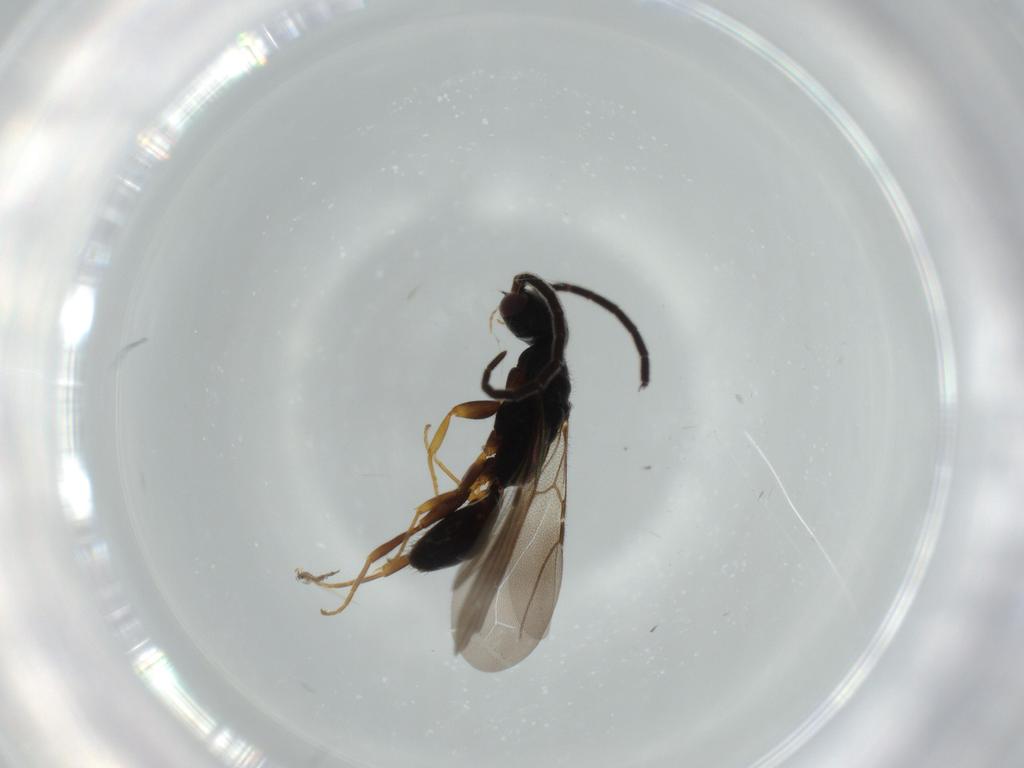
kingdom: Animalia
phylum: Arthropoda
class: Insecta
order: Hymenoptera
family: Bethylidae
